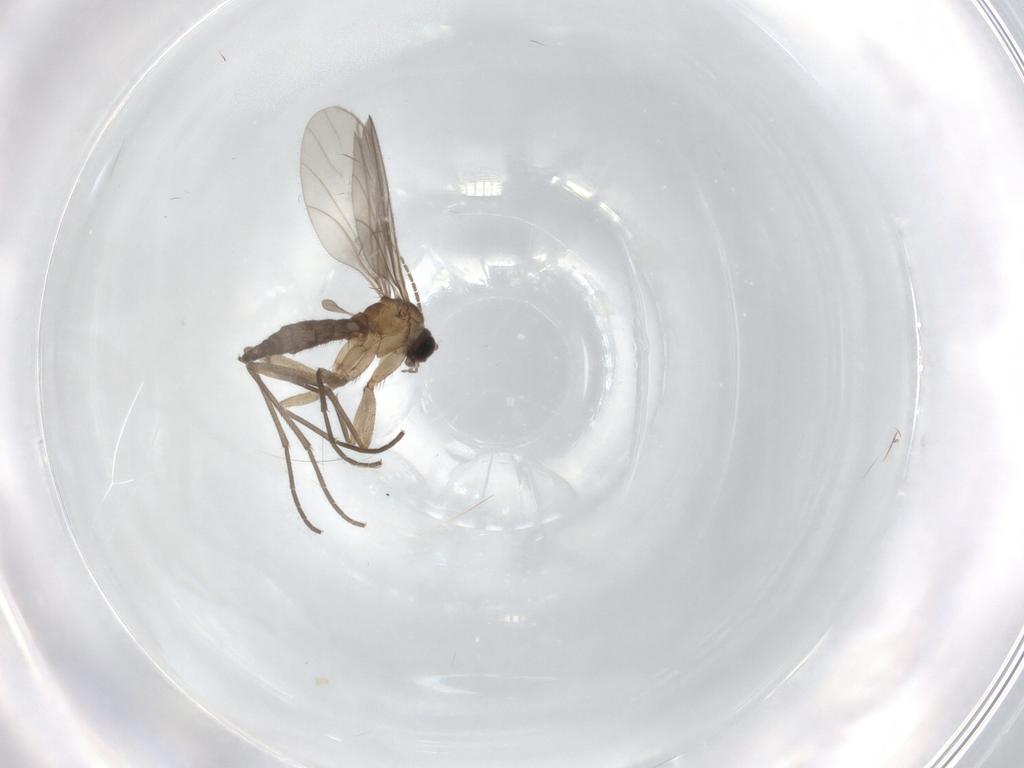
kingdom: Animalia
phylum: Arthropoda
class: Insecta
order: Diptera
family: Sciaridae
